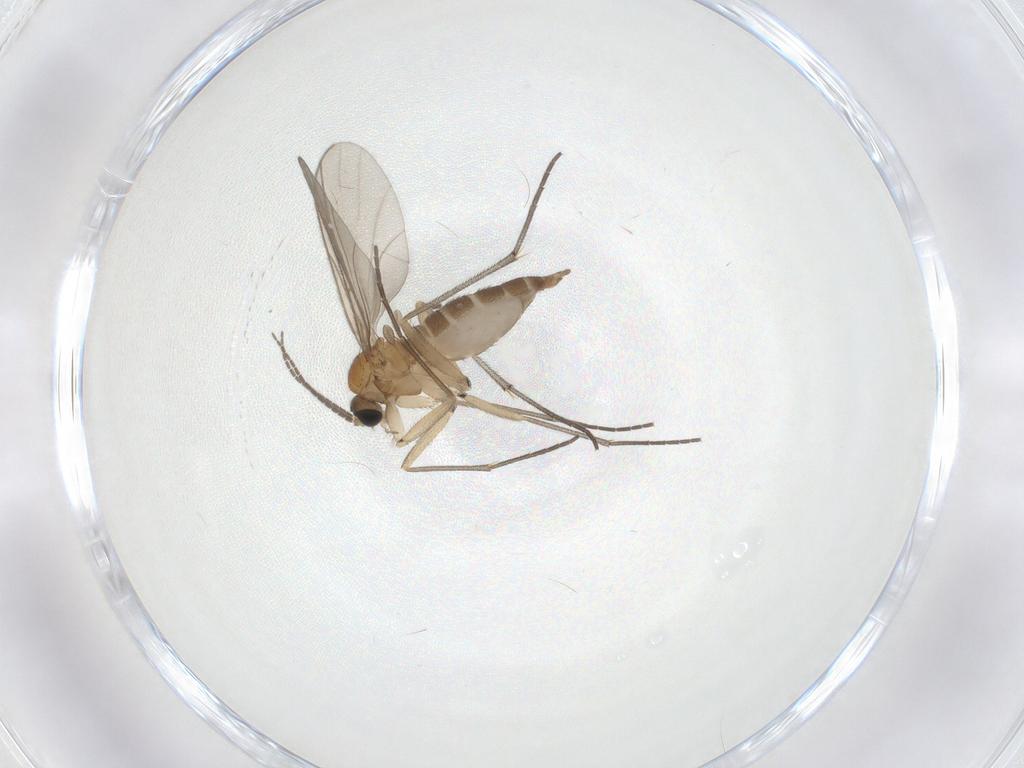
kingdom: Animalia
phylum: Arthropoda
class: Insecta
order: Diptera
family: Sciaridae
